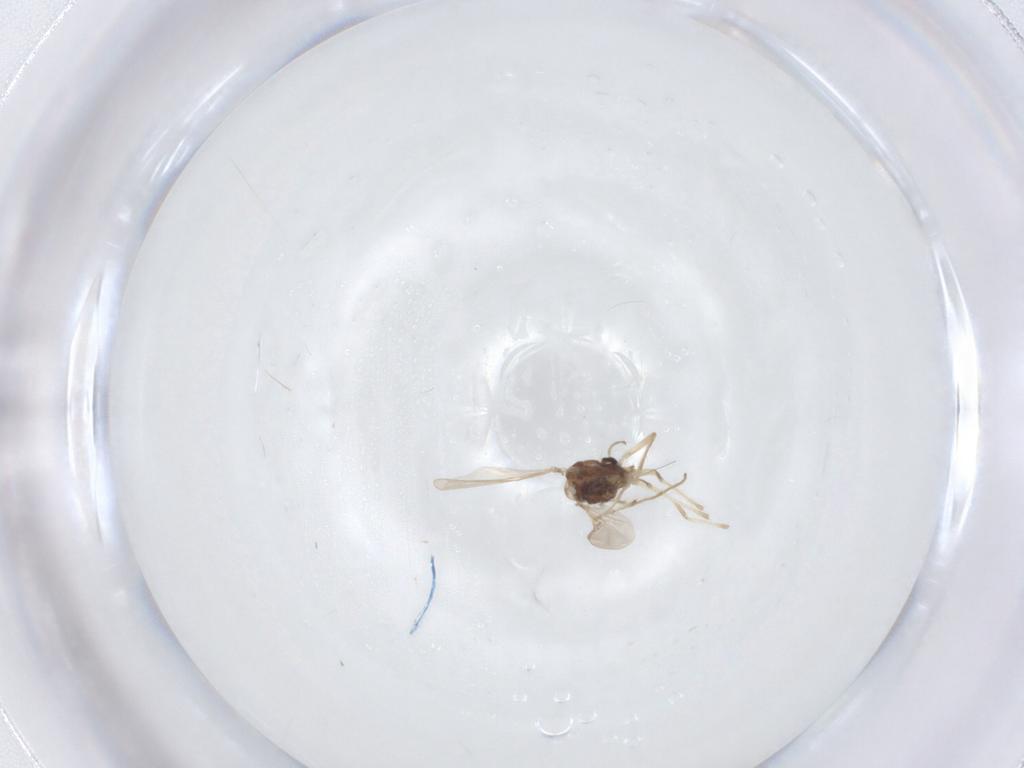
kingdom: Animalia
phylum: Arthropoda
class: Insecta
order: Diptera
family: Chironomidae
